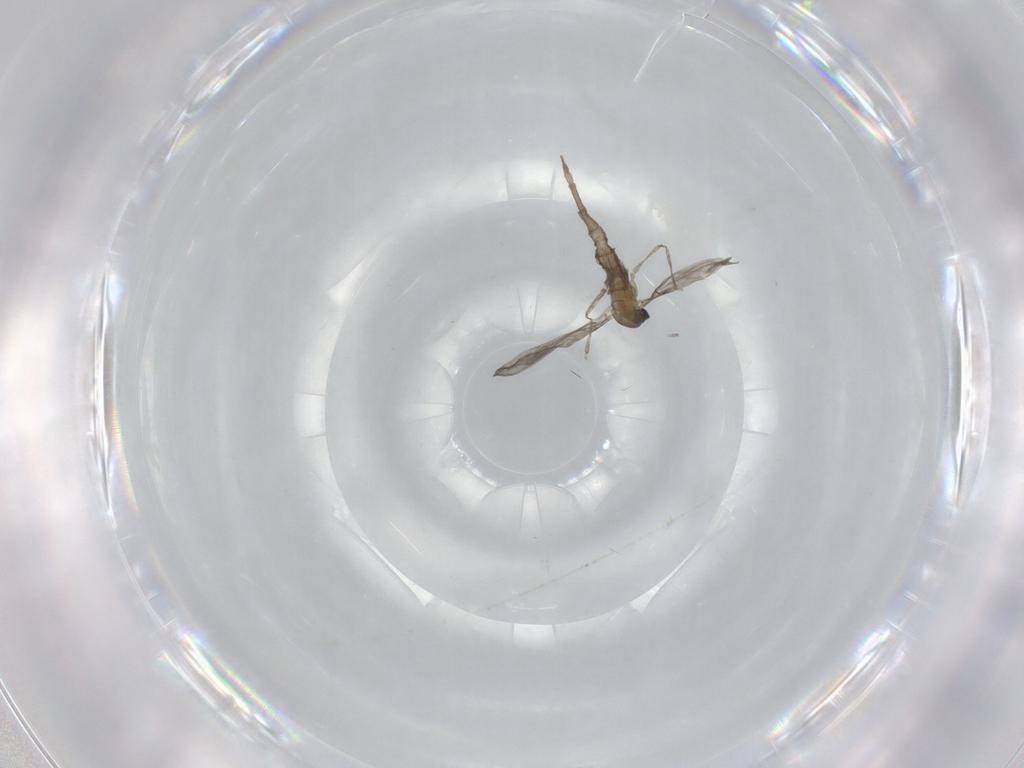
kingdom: Animalia
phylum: Arthropoda
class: Insecta
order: Diptera
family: Cecidomyiidae
